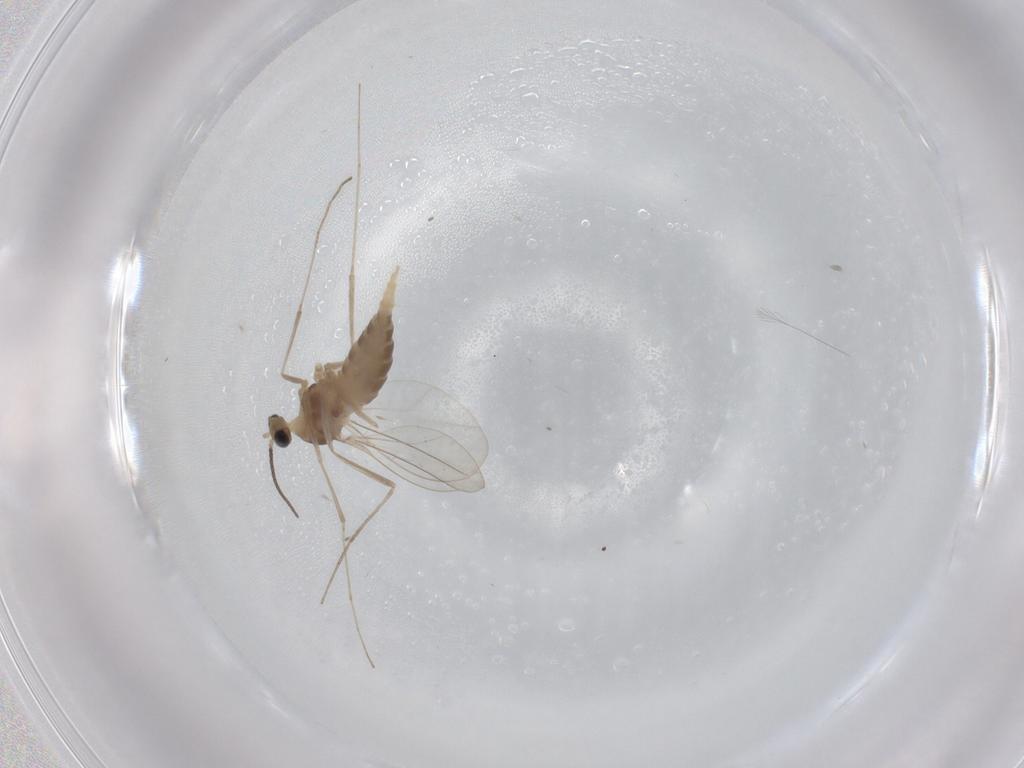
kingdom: Animalia
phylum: Arthropoda
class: Insecta
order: Diptera
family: Cecidomyiidae
